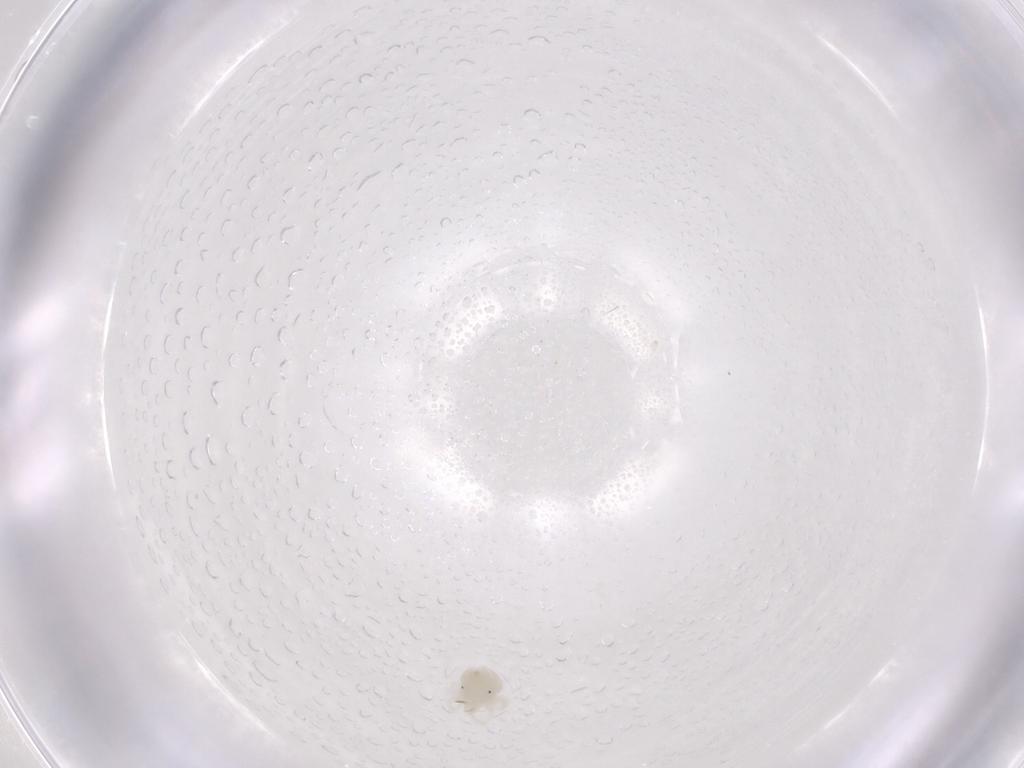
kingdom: Animalia
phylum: Arthropoda
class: Arachnida
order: Trombidiformes
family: Anystidae
